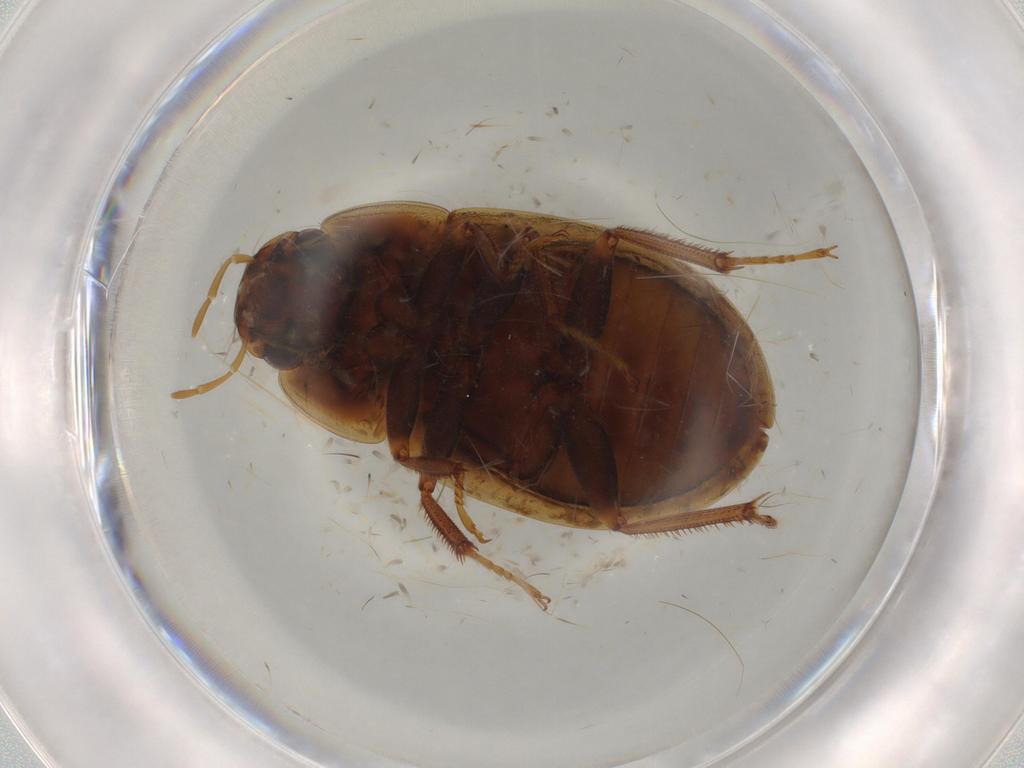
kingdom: Animalia
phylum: Arthropoda
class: Insecta
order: Coleoptera
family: Hydrophilidae
